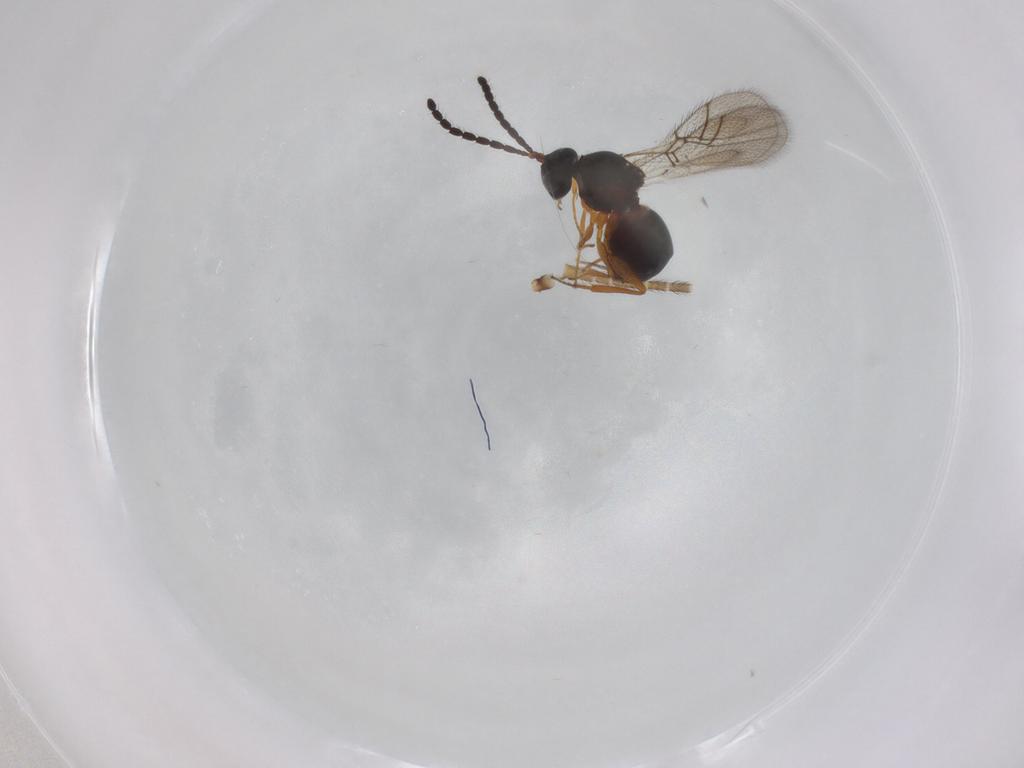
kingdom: Animalia
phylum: Arthropoda
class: Insecta
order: Hymenoptera
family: Figitidae
